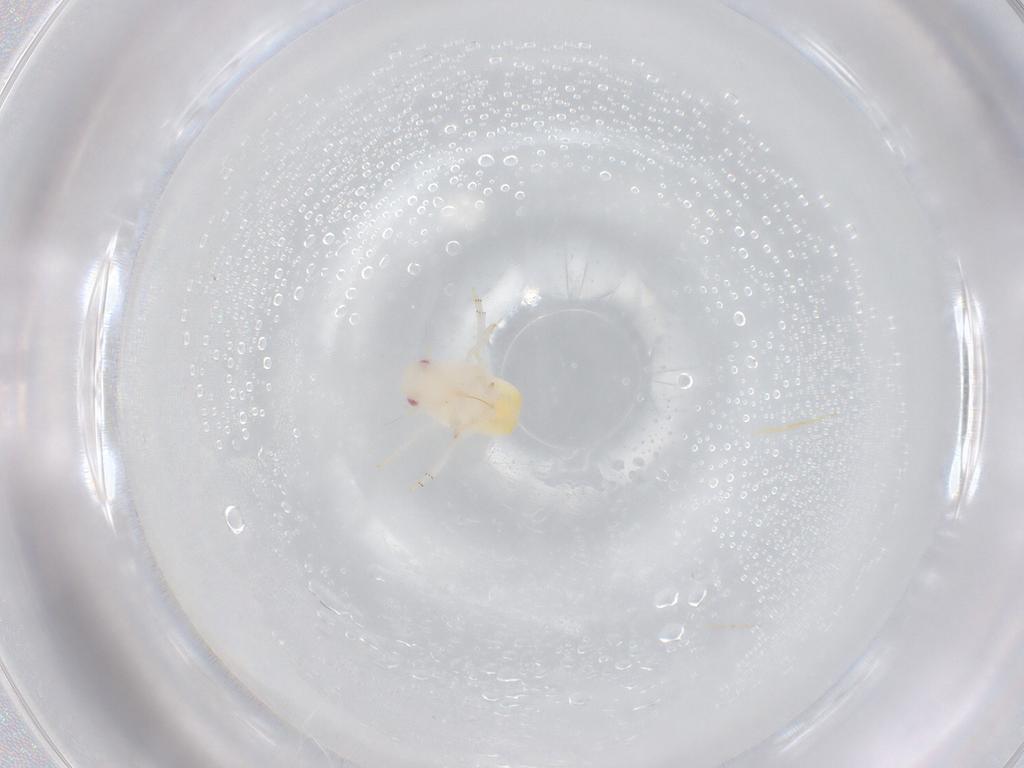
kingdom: Animalia
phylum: Arthropoda
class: Insecta
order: Hemiptera
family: Flatidae
